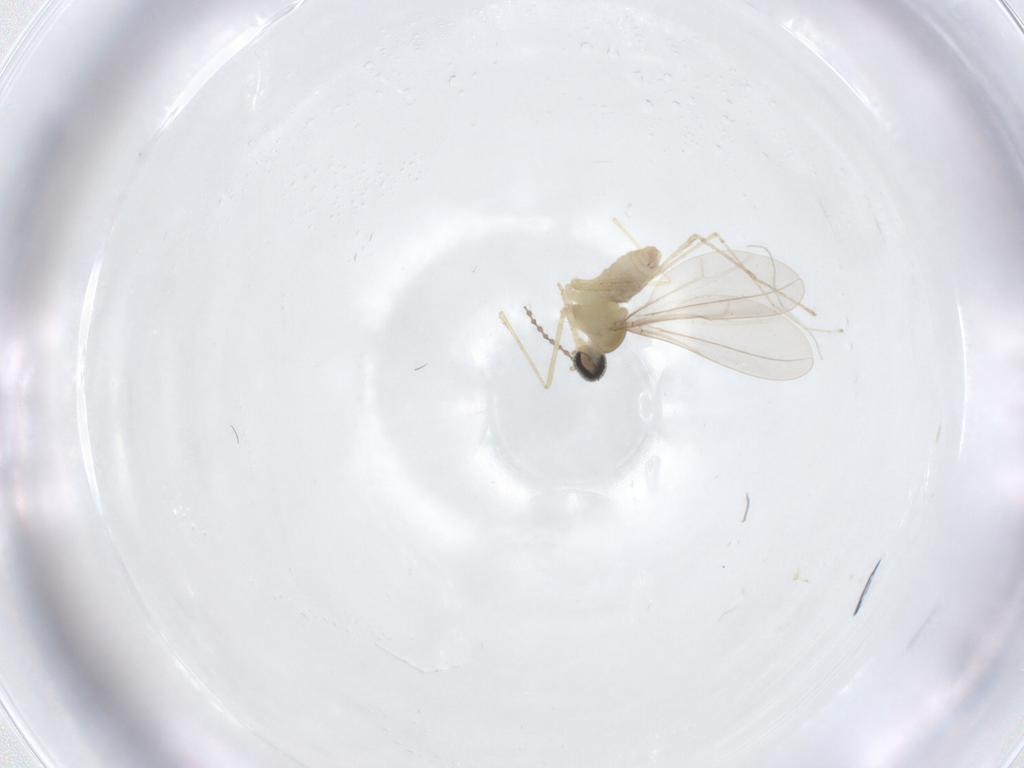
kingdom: Animalia
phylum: Arthropoda
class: Insecta
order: Diptera
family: Cecidomyiidae
